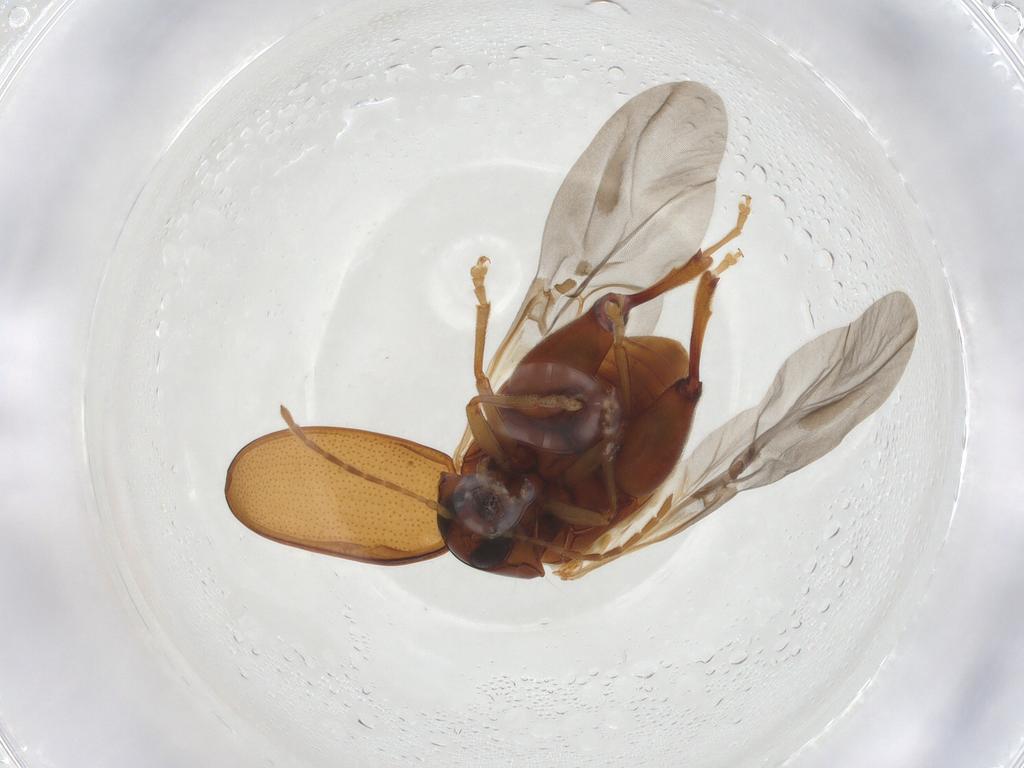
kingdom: Animalia
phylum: Arthropoda
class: Insecta
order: Coleoptera
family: Chrysomelidae
